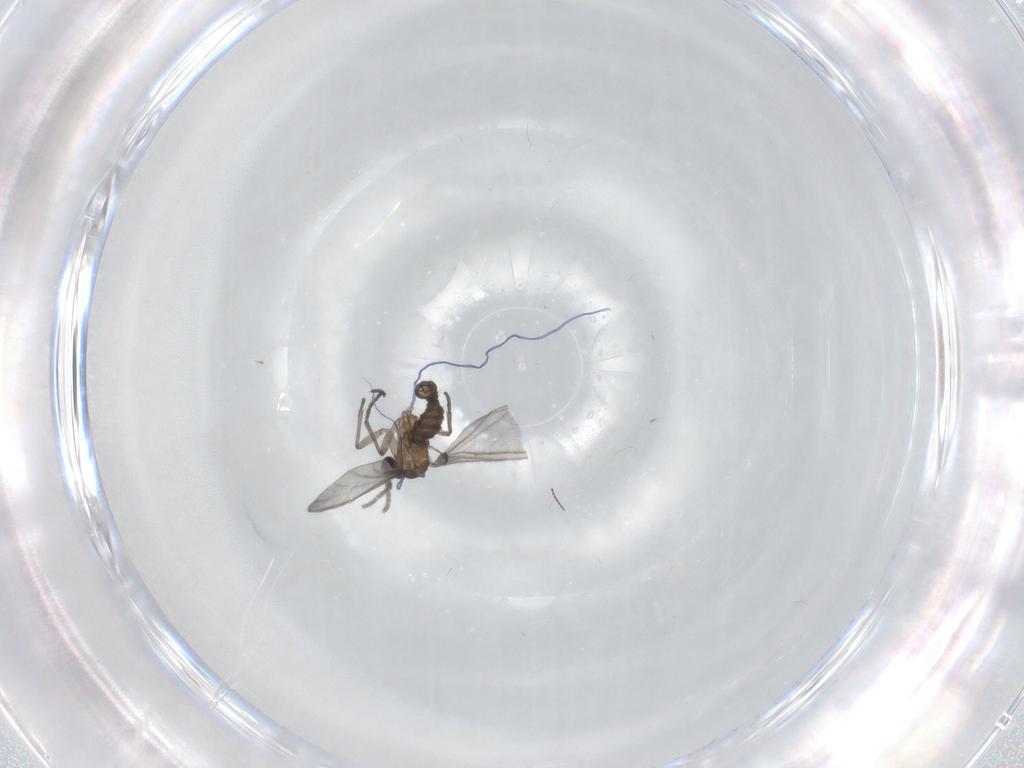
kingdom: Animalia
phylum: Arthropoda
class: Insecta
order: Diptera
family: Sciaridae
